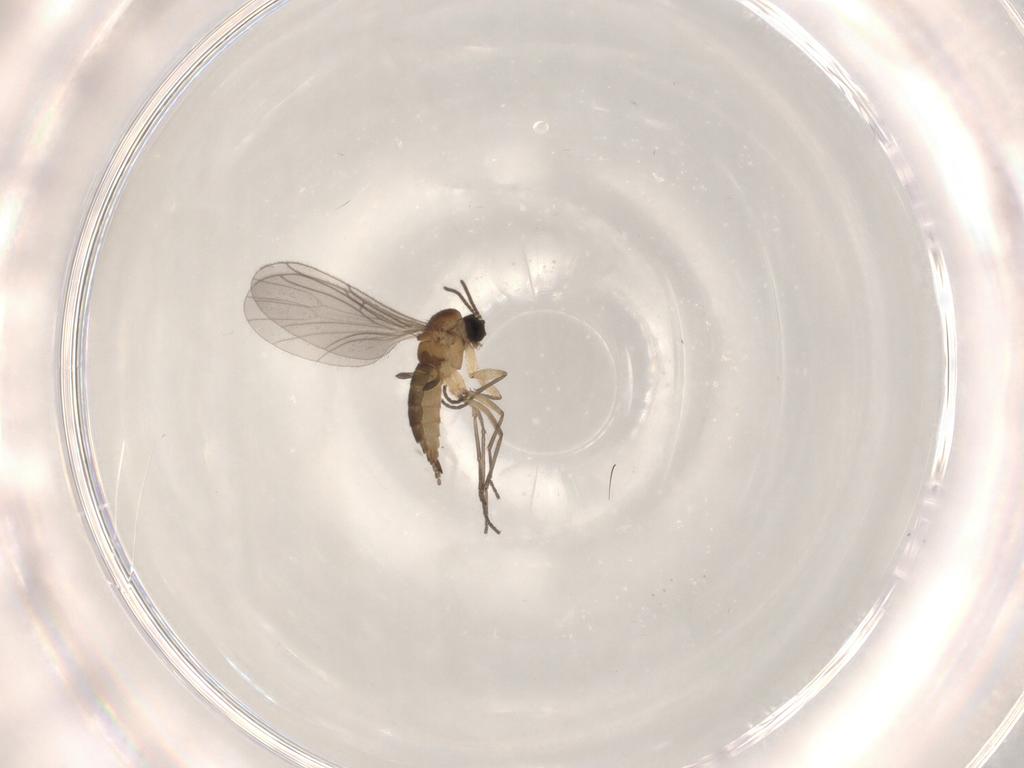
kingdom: Animalia
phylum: Arthropoda
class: Insecta
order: Diptera
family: Sciaridae
